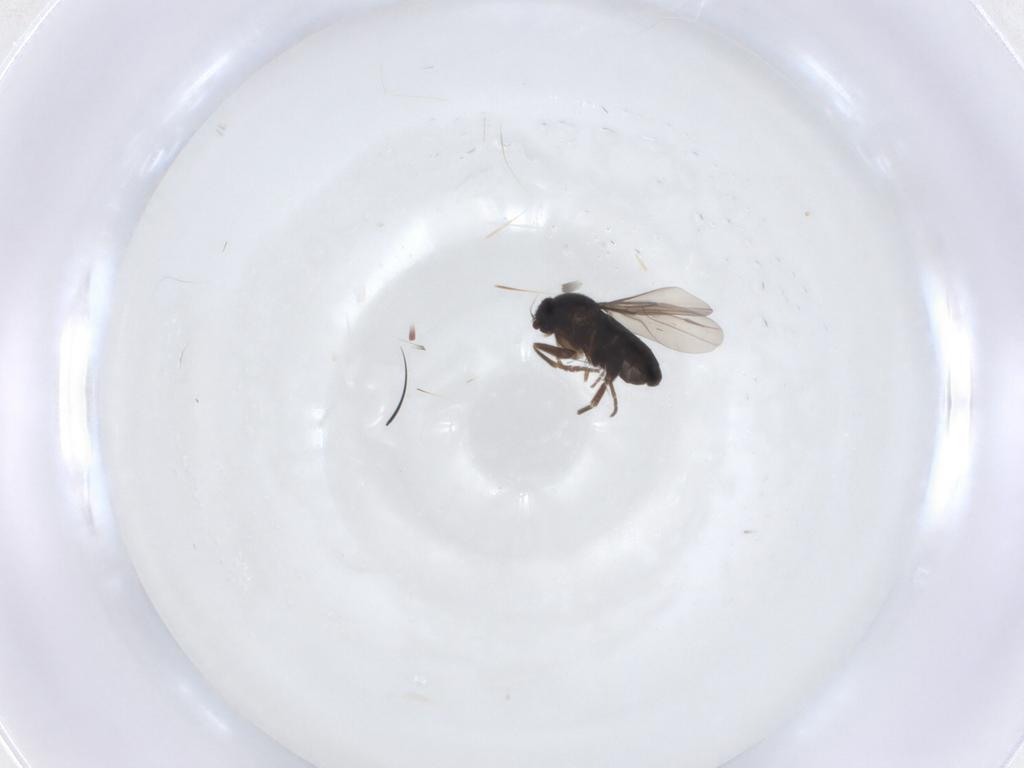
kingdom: Animalia
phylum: Arthropoda
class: Insecta
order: Diptera
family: Phoridae
